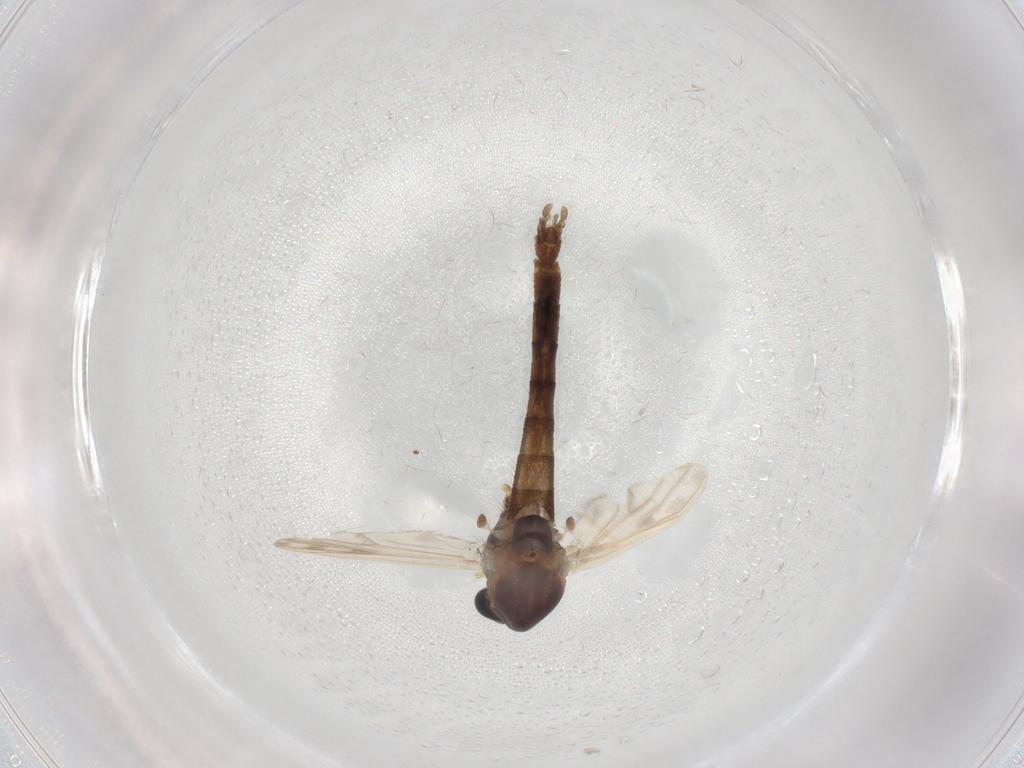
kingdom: Animalia
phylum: Arthropoda
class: Insecta
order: Diptera
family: Chironomidae
